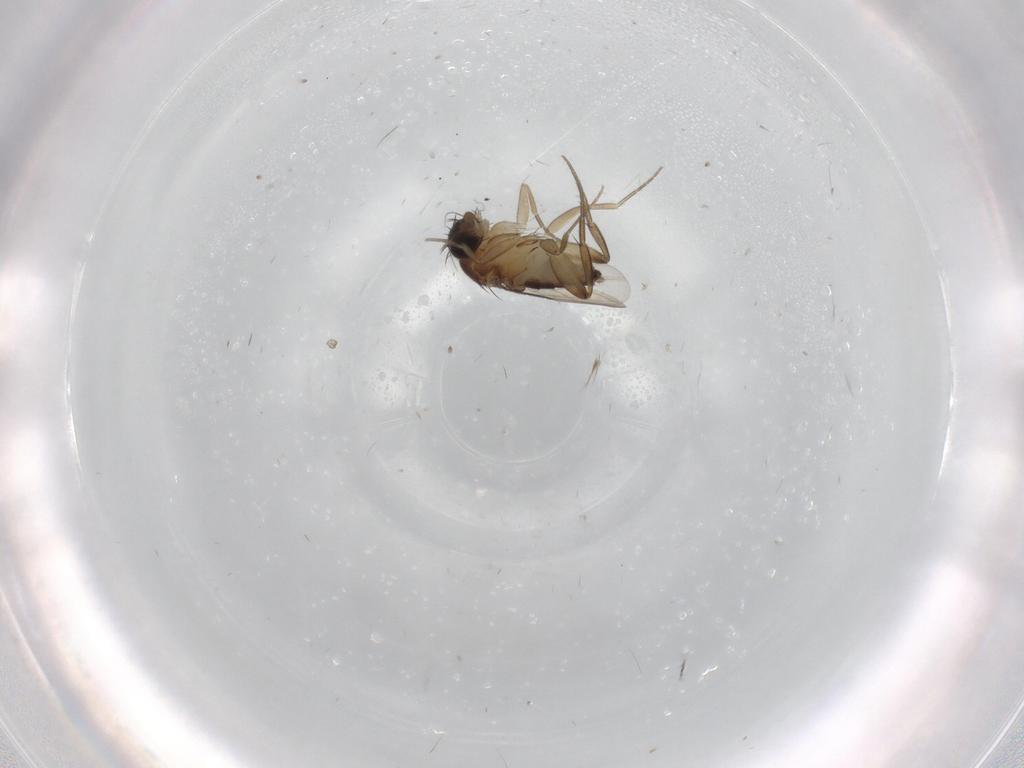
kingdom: Animalia
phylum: Arthropoda
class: Insecta
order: Diptera
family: Phoridae
